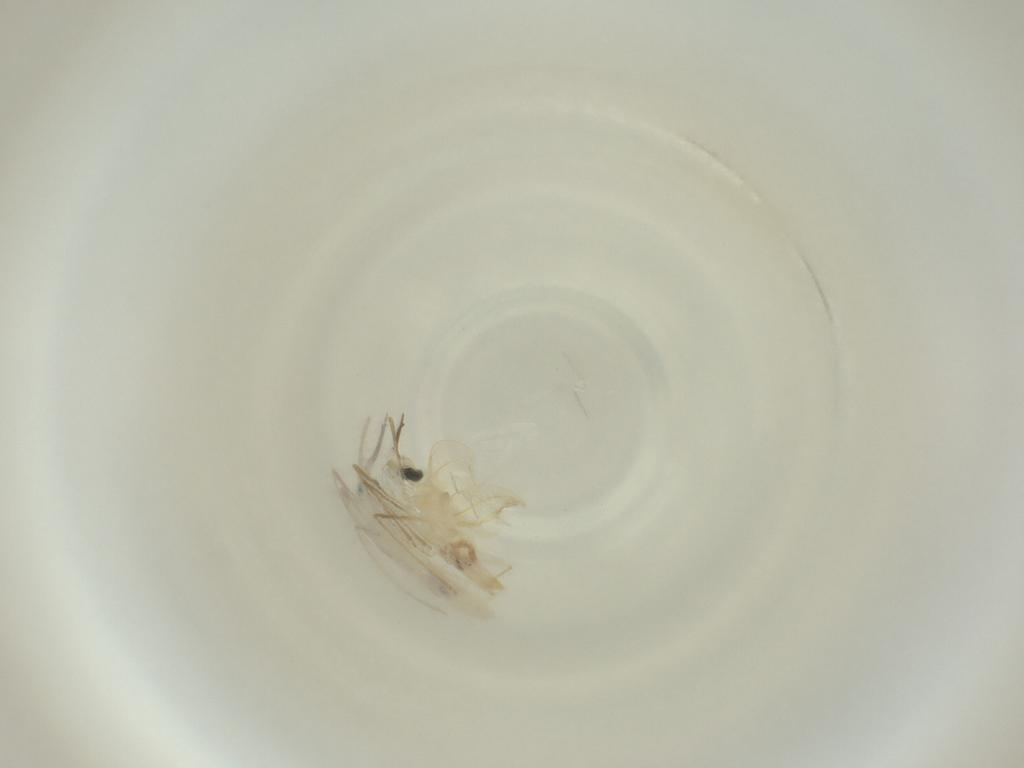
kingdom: Animalia
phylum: Arthropoda
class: Insecta
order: Diptera
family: Cecidomyiidae
